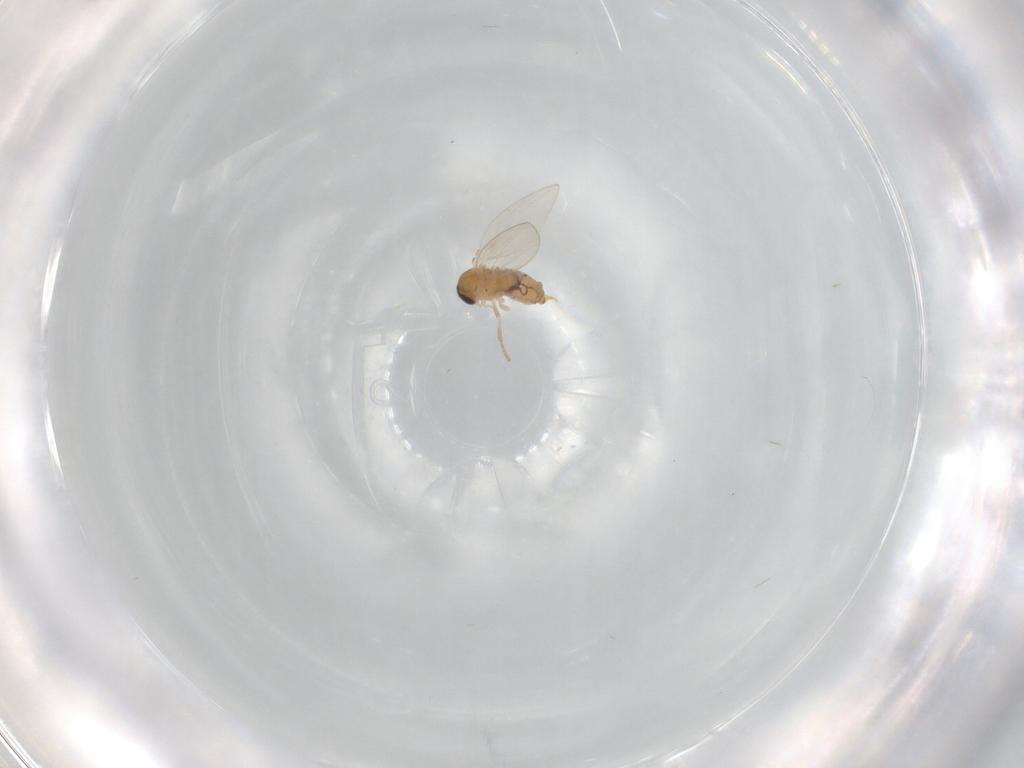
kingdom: Animalia
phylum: Arthropoda
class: Insecta
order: Diptera
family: Psychodidae
